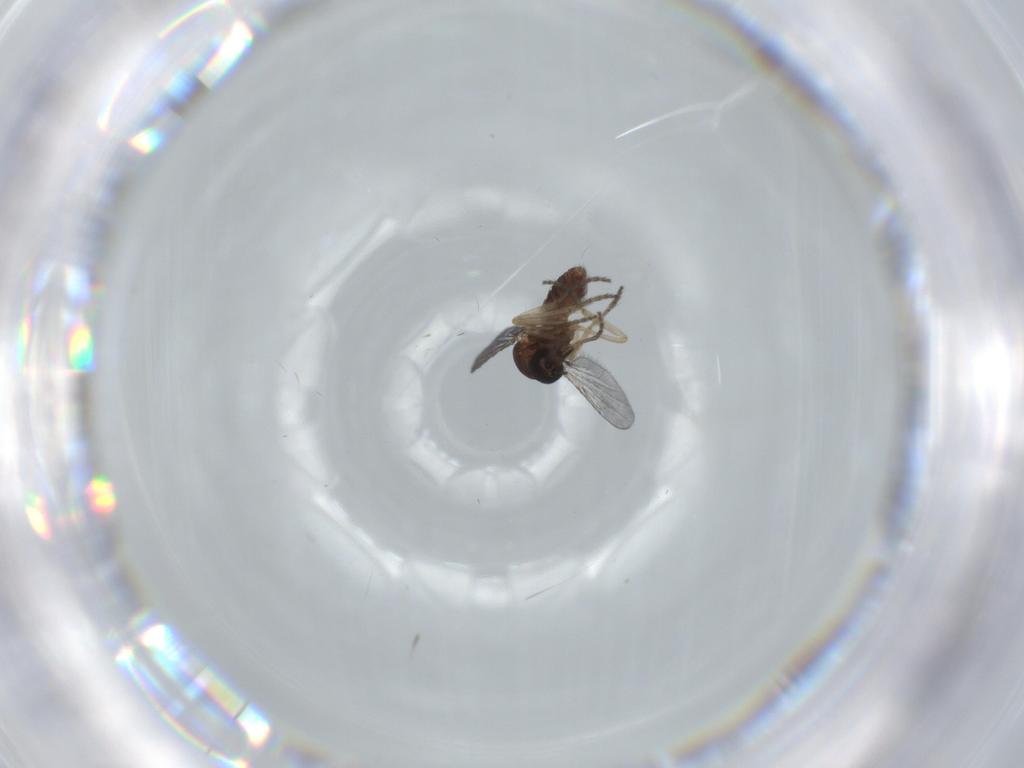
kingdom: Animalia
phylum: Arthropoda
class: Insecta
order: Diptera
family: Ceratopogonidae
